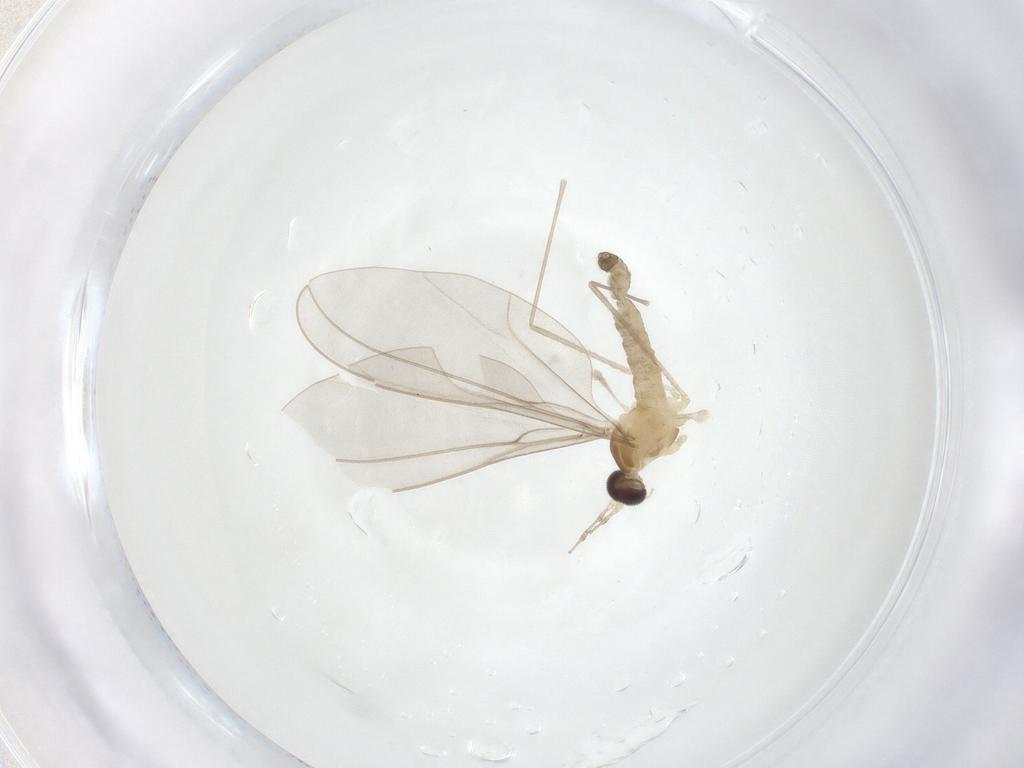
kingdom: Animalia
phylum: Arthropoda
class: Insecta
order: Diptera
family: Cecidomyiidae
